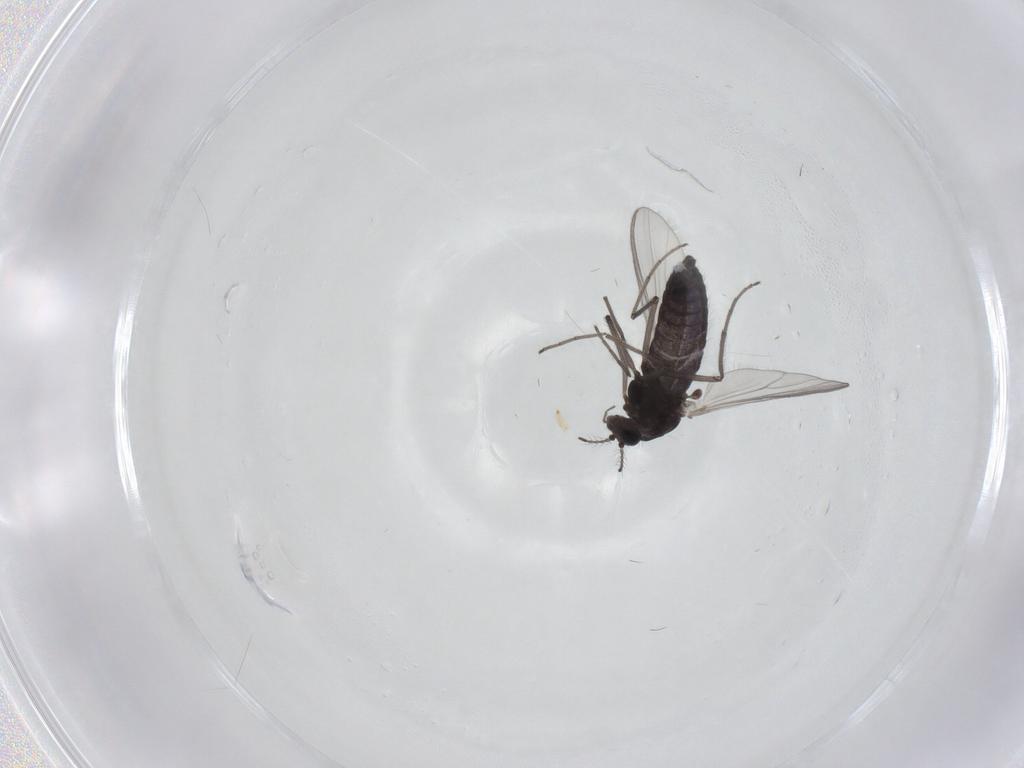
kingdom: Animalia
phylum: Arthropoda
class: Insecta
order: Diptera
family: Chironomidae
